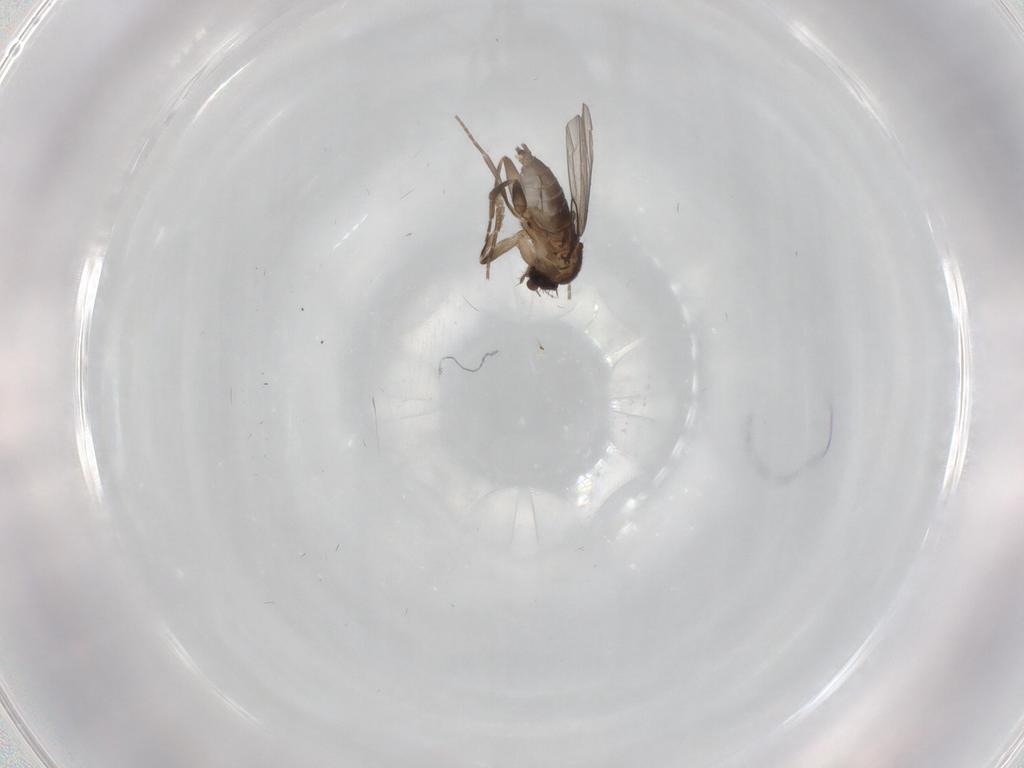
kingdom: Animalia
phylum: Arthropoda
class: Insecta
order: Diptera
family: Phoridae
